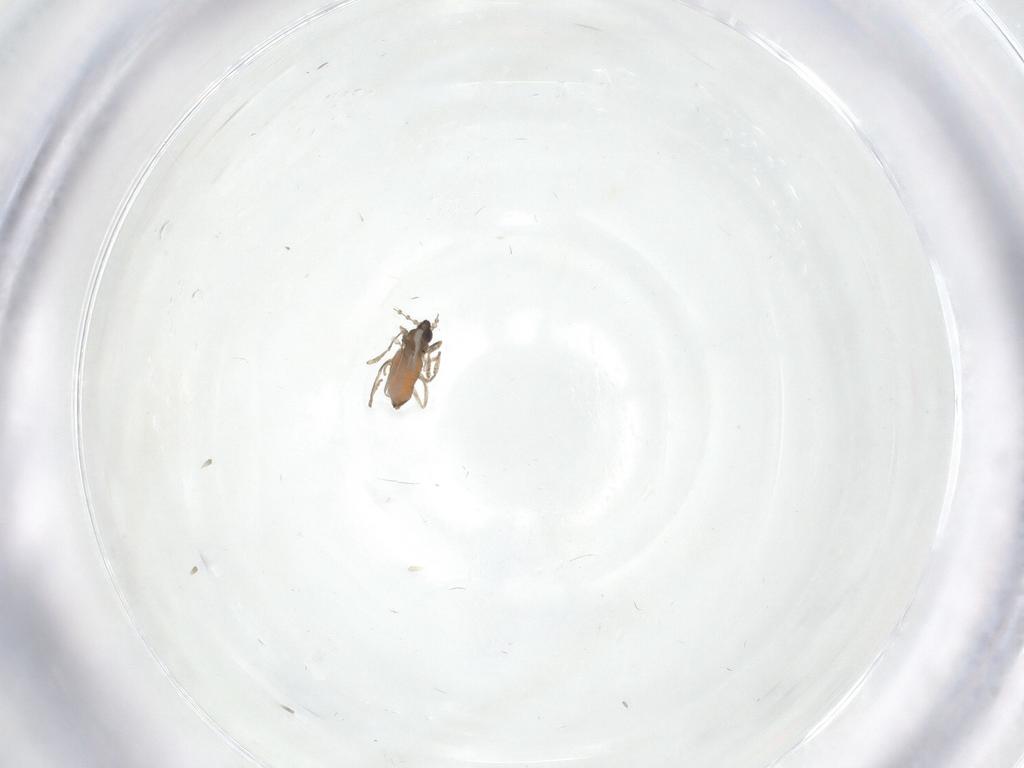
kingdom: Animalia
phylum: Arthropoda
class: Insecta
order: Diptera
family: Cecidomyiidae
